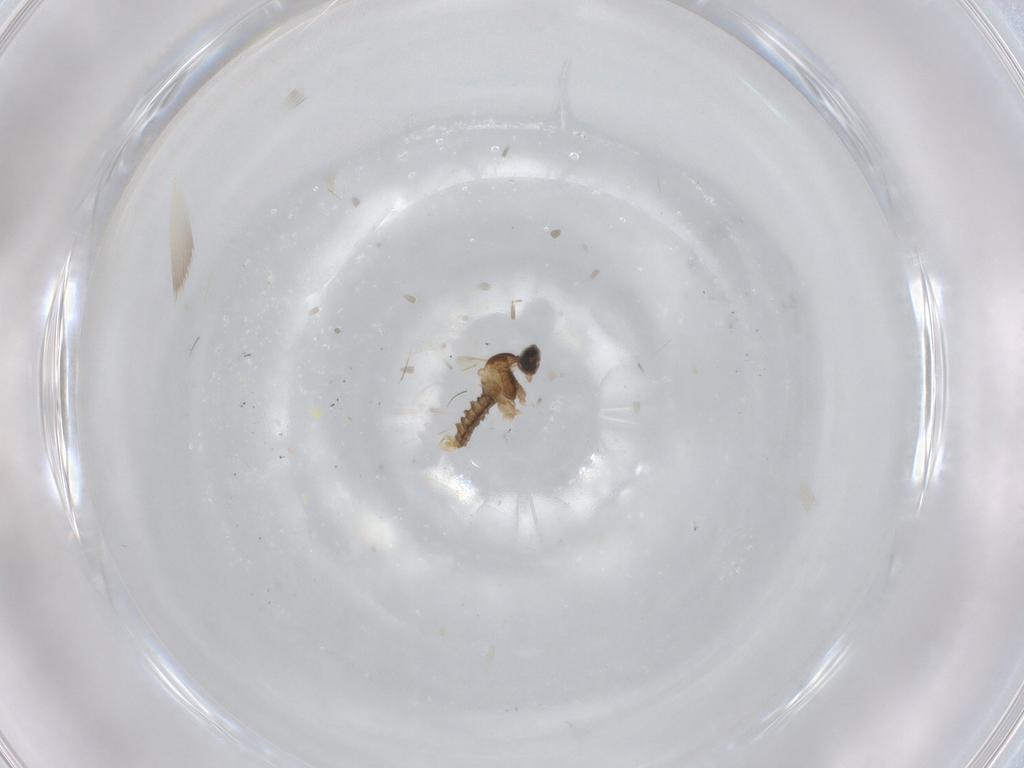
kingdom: Animalia
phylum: Arthropoda
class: Insecta
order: Diptera
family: Cecidomyiidae
